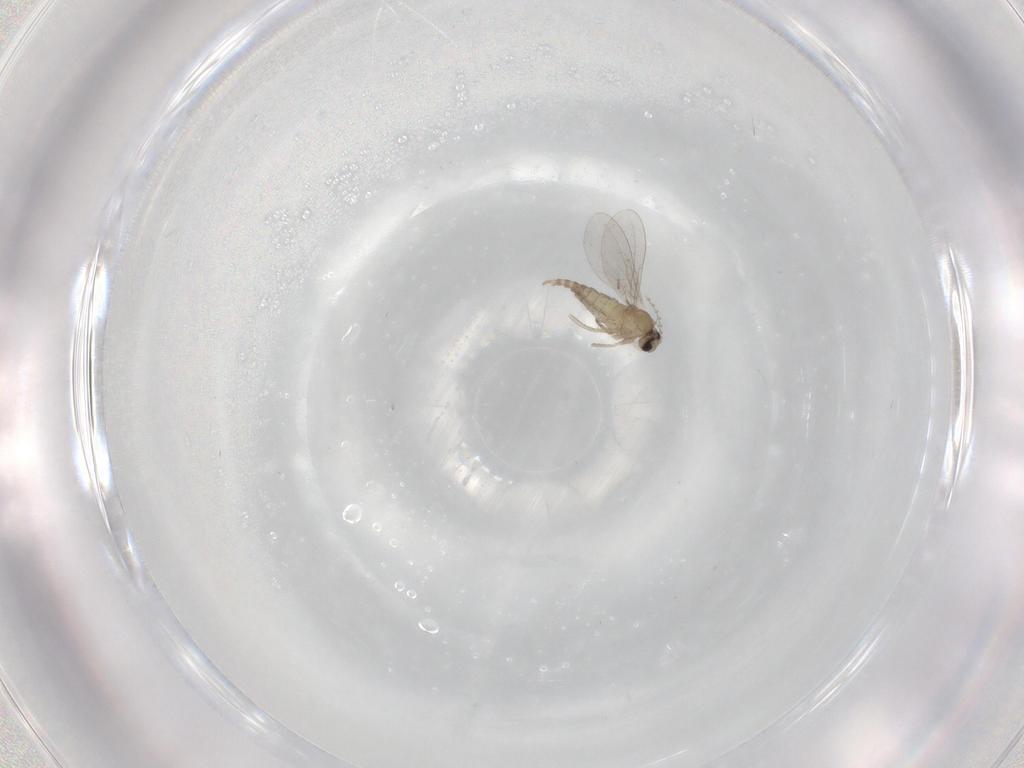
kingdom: Animalia
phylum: Arthropoda
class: Insecta
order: Diptera
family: Cecidomyiidae
